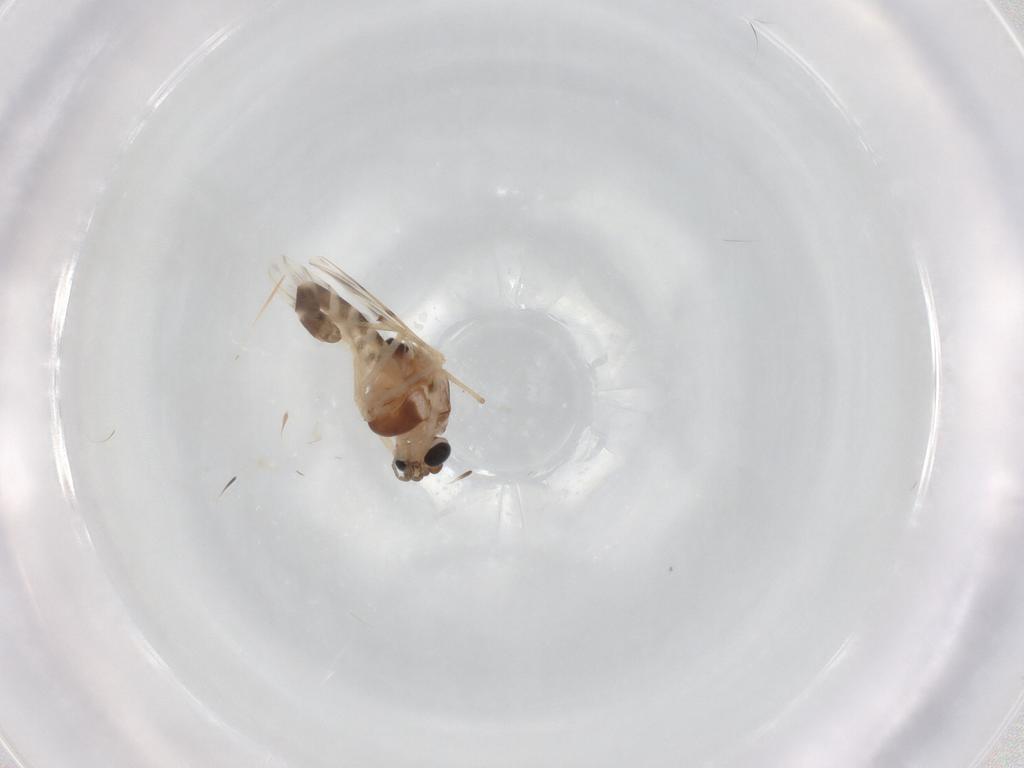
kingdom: Animalia
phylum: Arthropoda
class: Insecta
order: Diptera
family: Chironomidae
